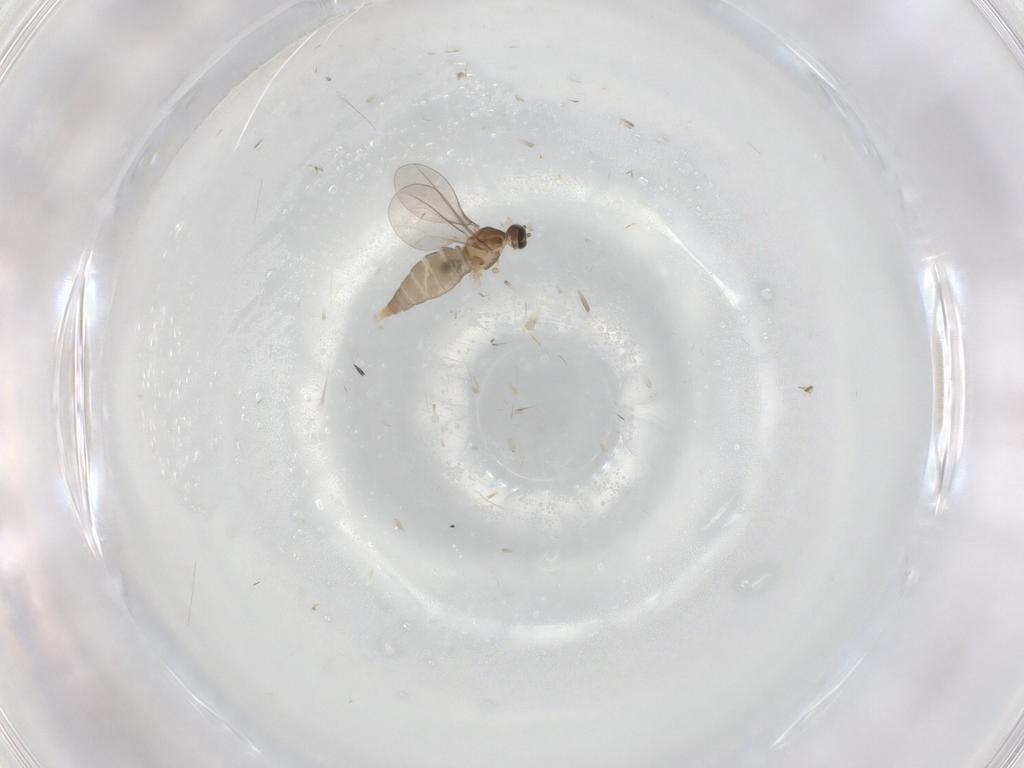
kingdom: Animalia
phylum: Arthropoda
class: Insecta
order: Diptera
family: Cecidomyiidae
